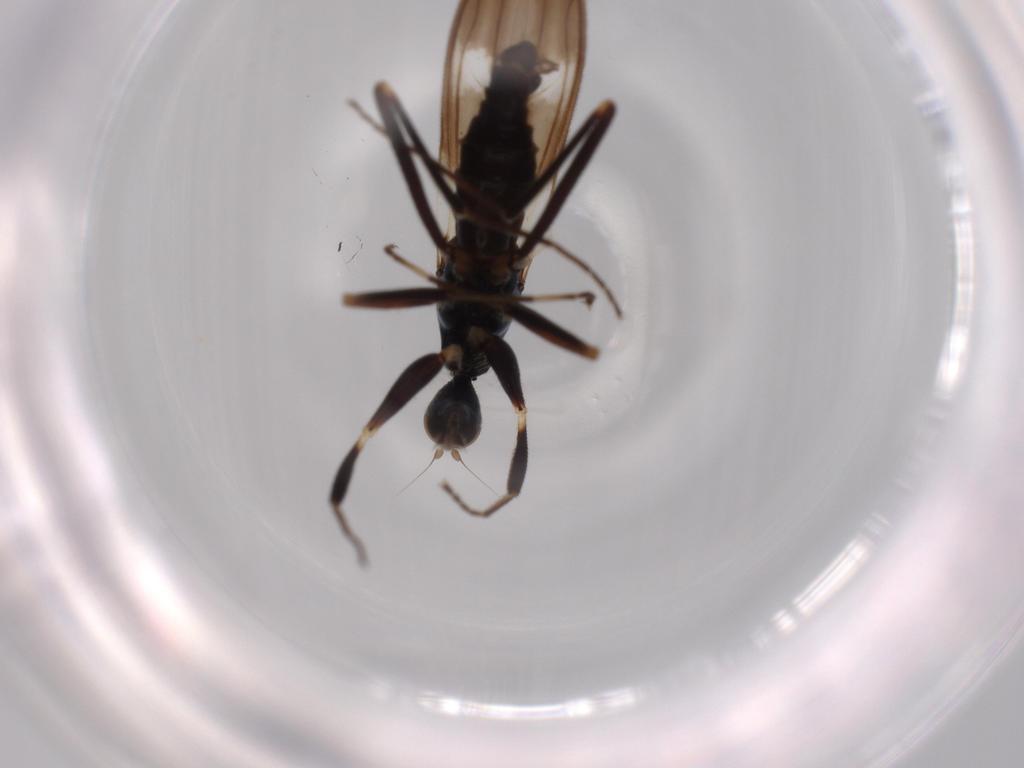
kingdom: Animalia
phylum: Arthropoda
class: Insecta
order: Diptera
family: Hybotidae
